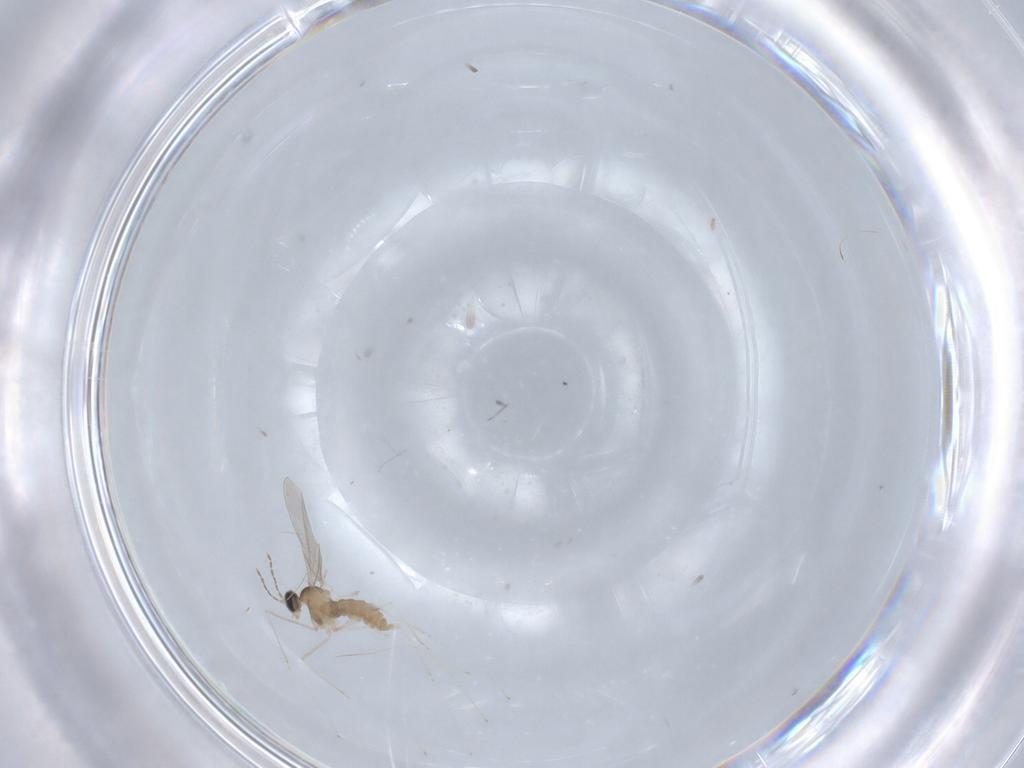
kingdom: Animalia
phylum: Arthropoda
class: Insecta
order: Diptera
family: Cecidomyiidae
